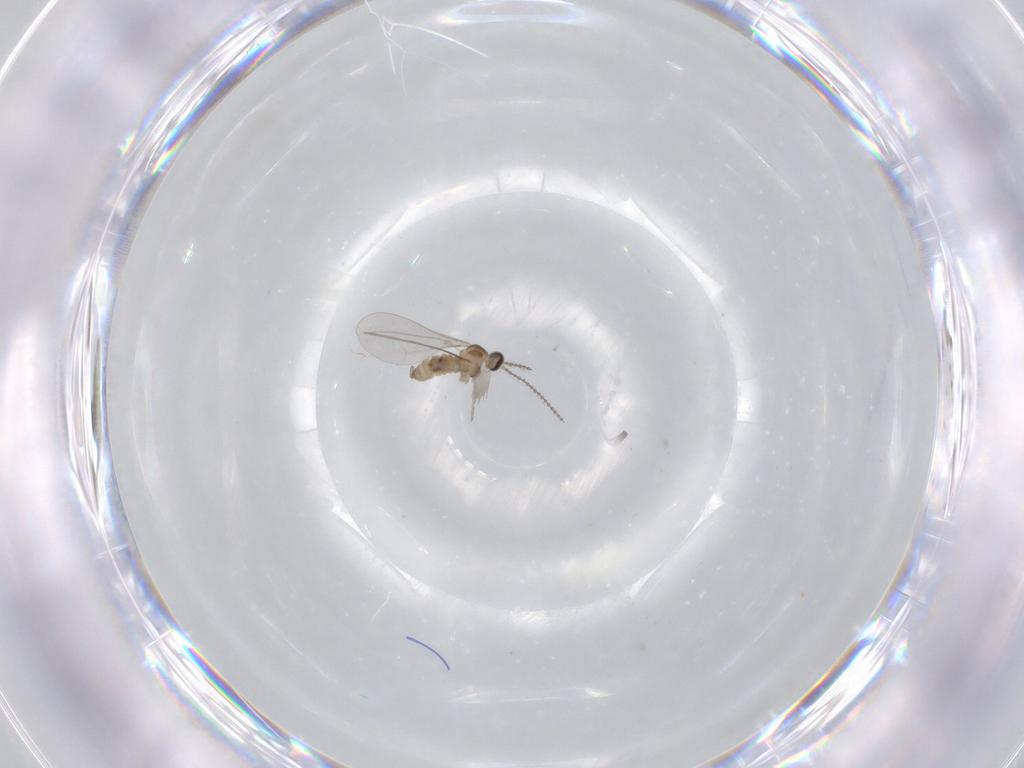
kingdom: Animalia
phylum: Arthropoda
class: Insecta
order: Diptera
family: Cecidomyiidae
